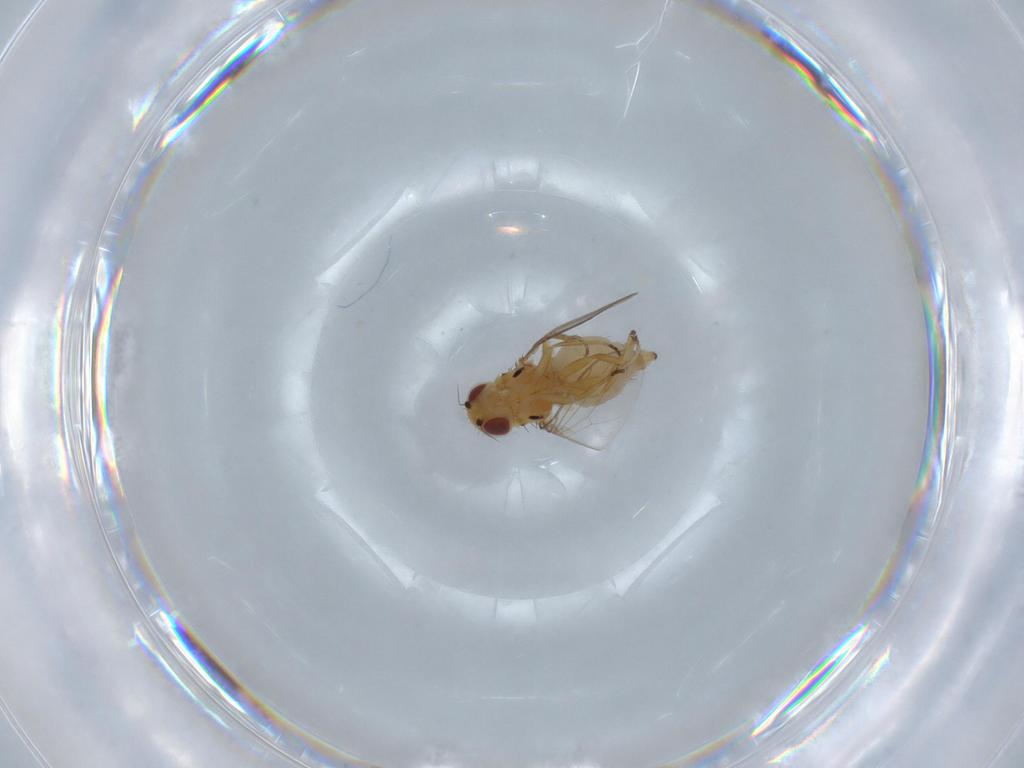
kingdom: Animalia
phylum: Arthropoda
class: Insecta
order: Diptera
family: Chloropidae
